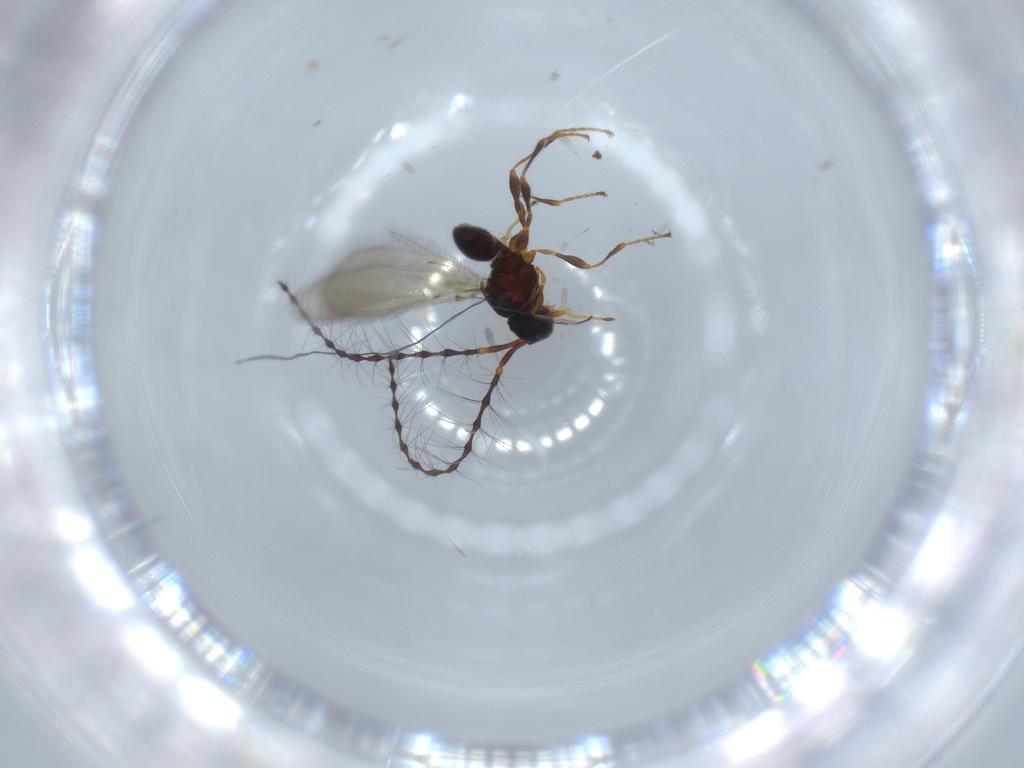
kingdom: Animalia
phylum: Arthropoda
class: Insecta
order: Hymenoptera
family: Diapriidae
